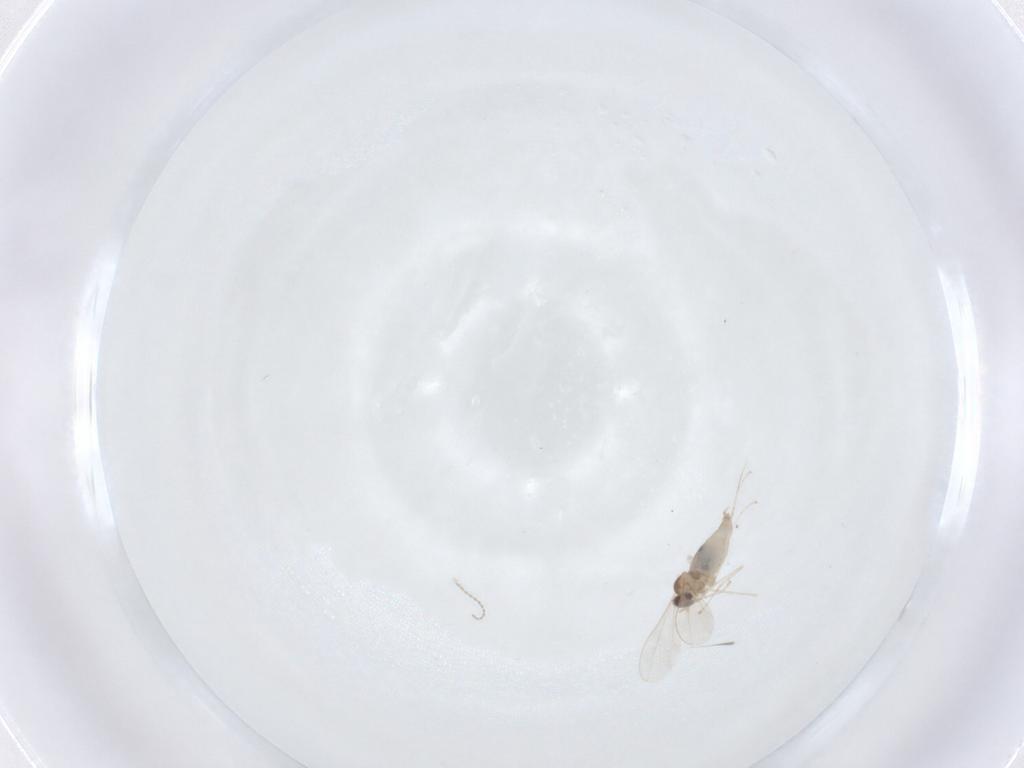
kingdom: Animalia
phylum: Arthropoda
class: Insecta
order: Diptera
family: Cecidomyiidae
